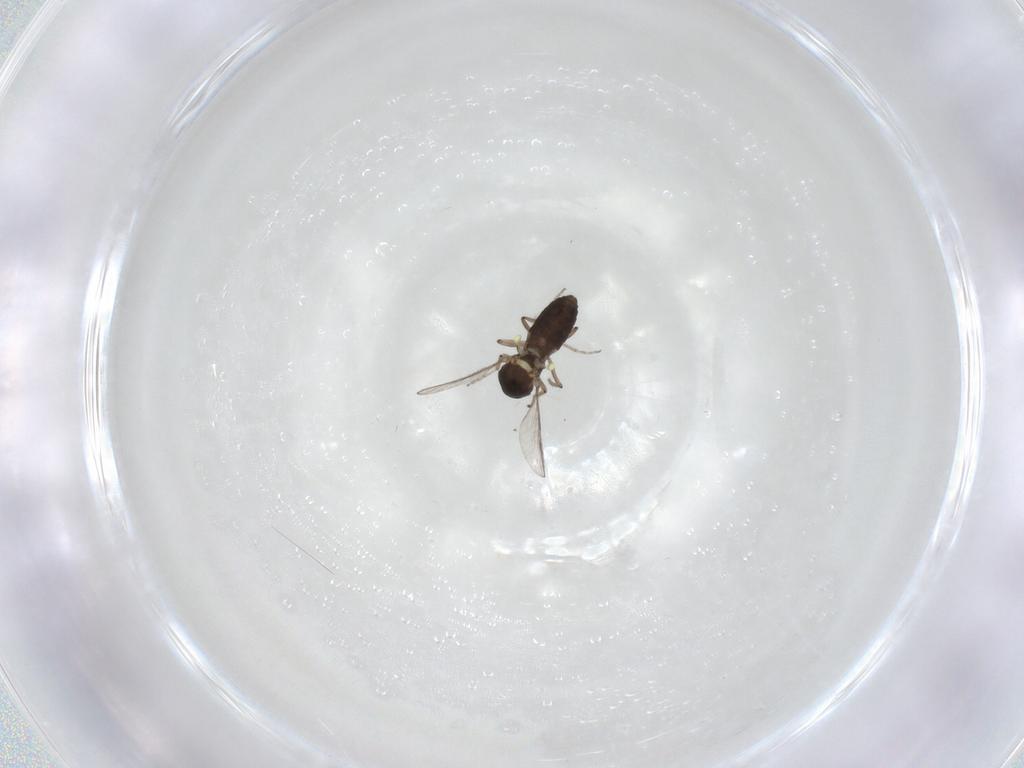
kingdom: Animalia
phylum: Arthropoda
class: Insecta
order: Diptera
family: Ceratopogonidae
